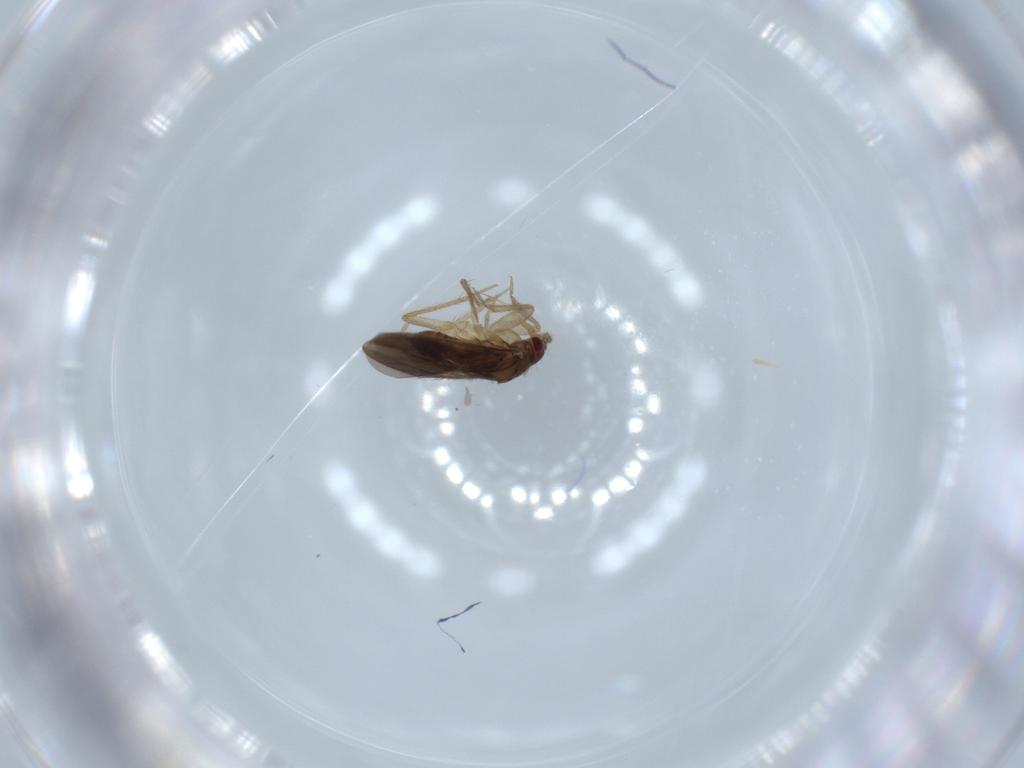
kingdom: Animalia
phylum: Arthropoda
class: Insecta
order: Hemiptera
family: Ceratocombidae
